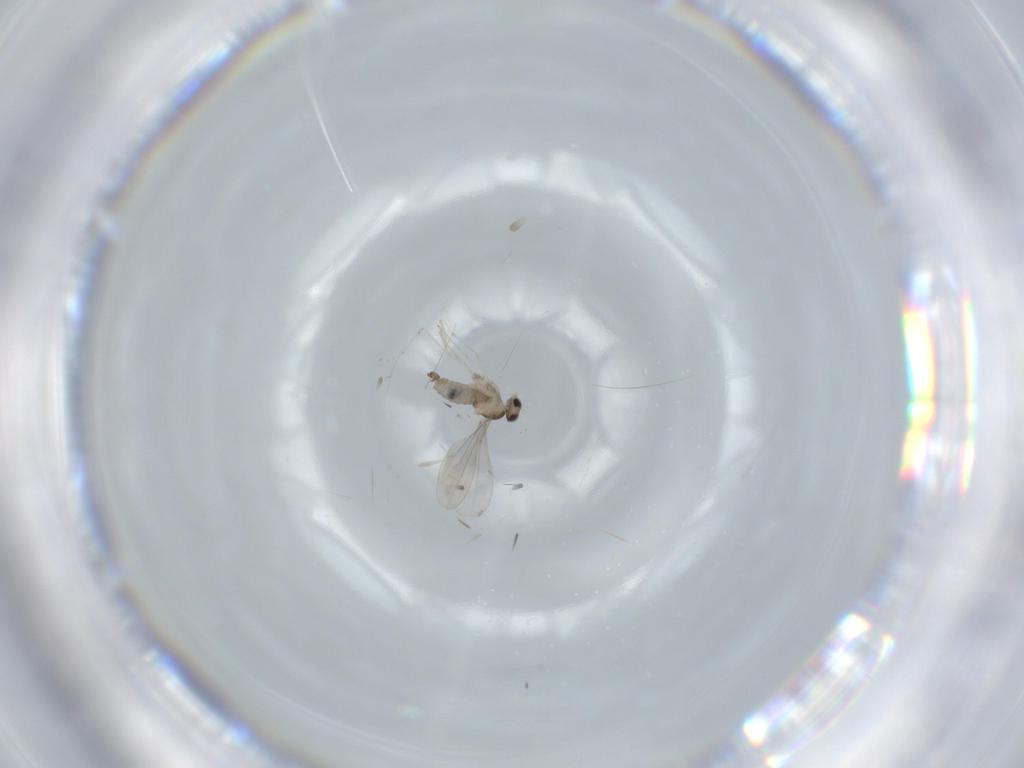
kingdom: Animalia
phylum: Arthropoda
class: Insecta
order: Diptera
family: Cecidomyiidae
